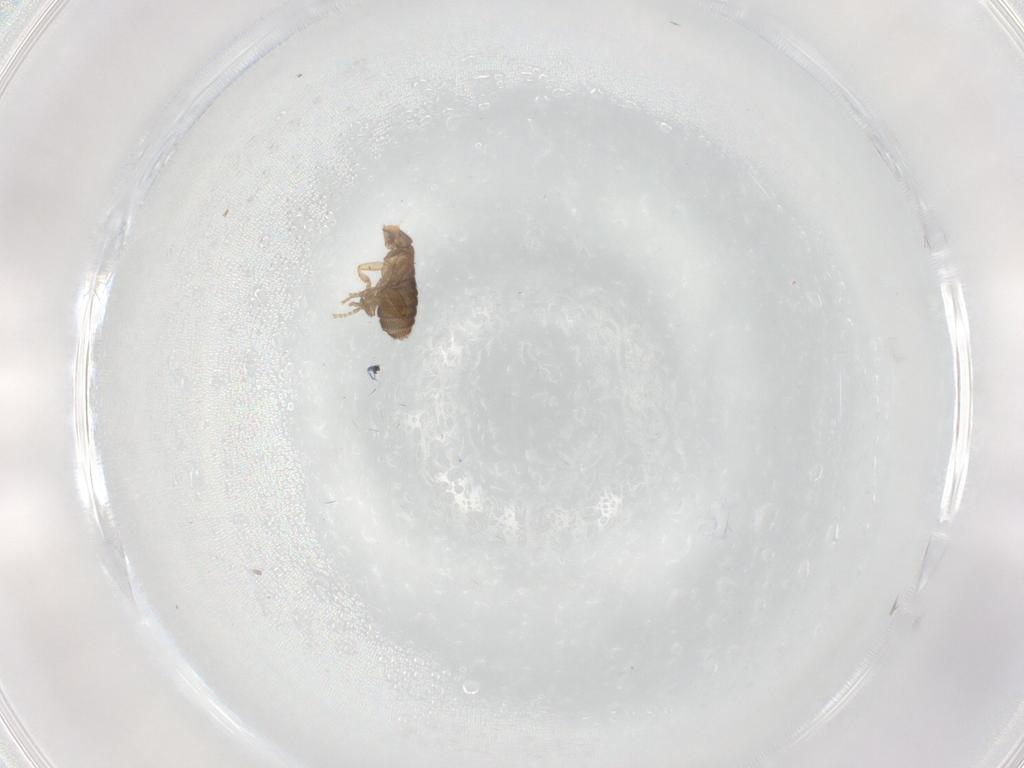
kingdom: Animalia
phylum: Arthropoda
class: Insecta
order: Diptera
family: Phoridae
